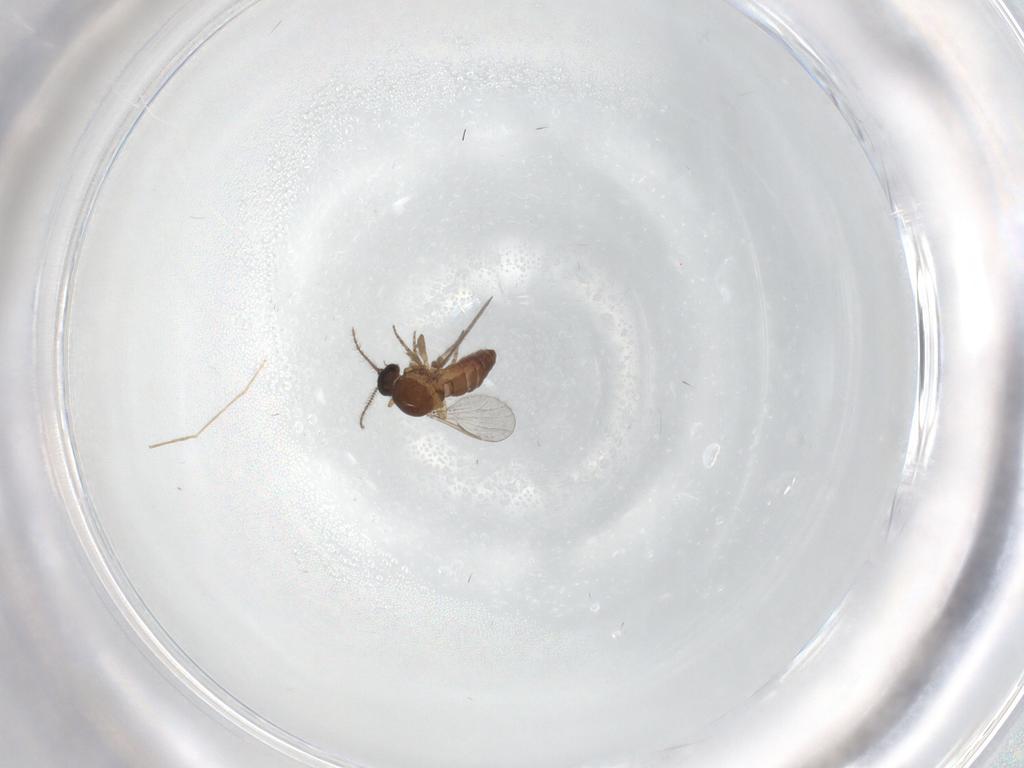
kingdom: Animalia
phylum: Arthropoda
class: Insecta
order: Diptera
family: Chironomidae
